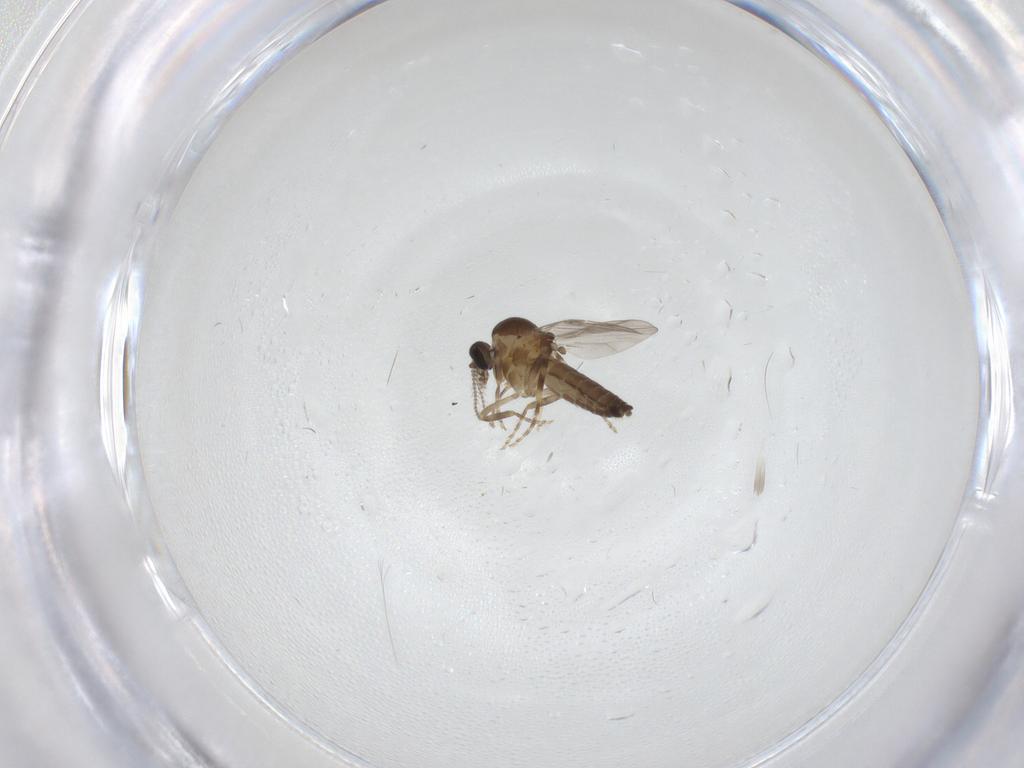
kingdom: Animalia
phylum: Arthropoda
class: Insecta
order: Diptera
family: Ceratopogonidae
